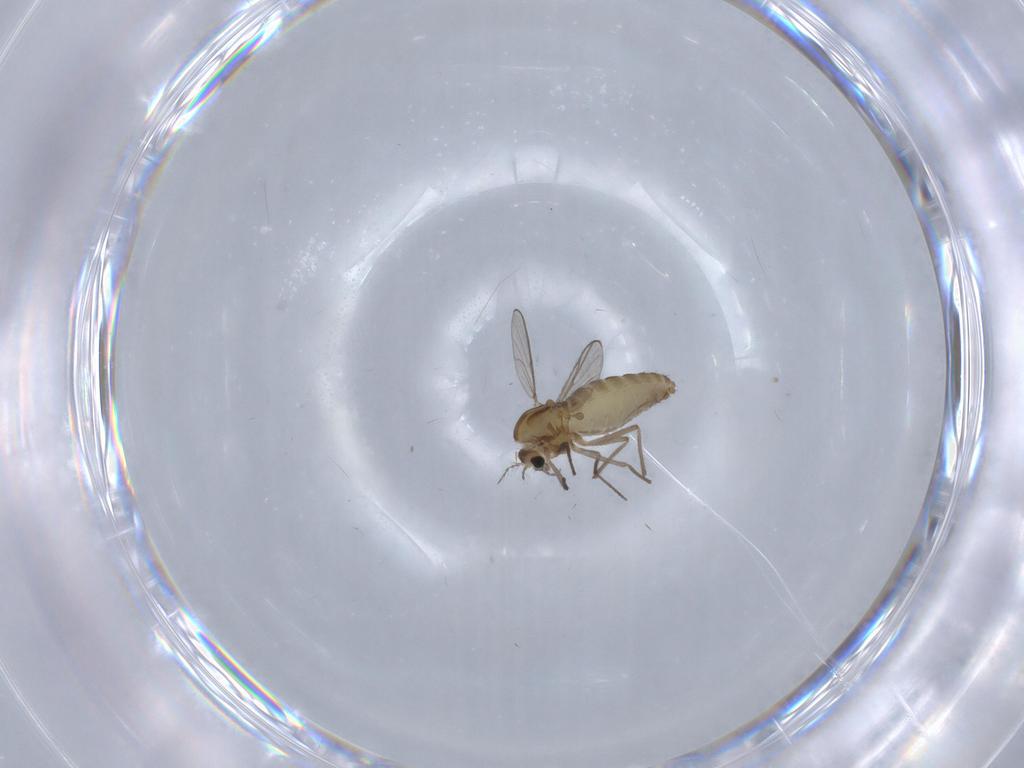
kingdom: Animalia
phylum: Arthropoda
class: Insecta
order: Diptera
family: Chironomidae
